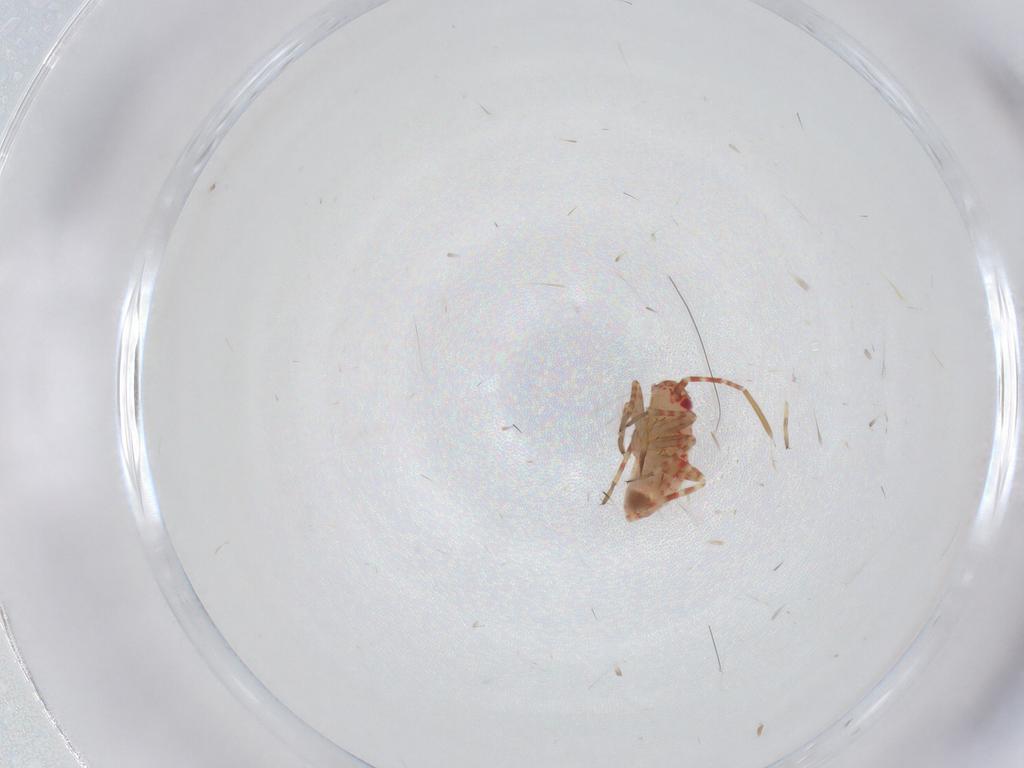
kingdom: Animalia
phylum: Arthropoda
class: Insecta
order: Hemiptera
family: Miridae
